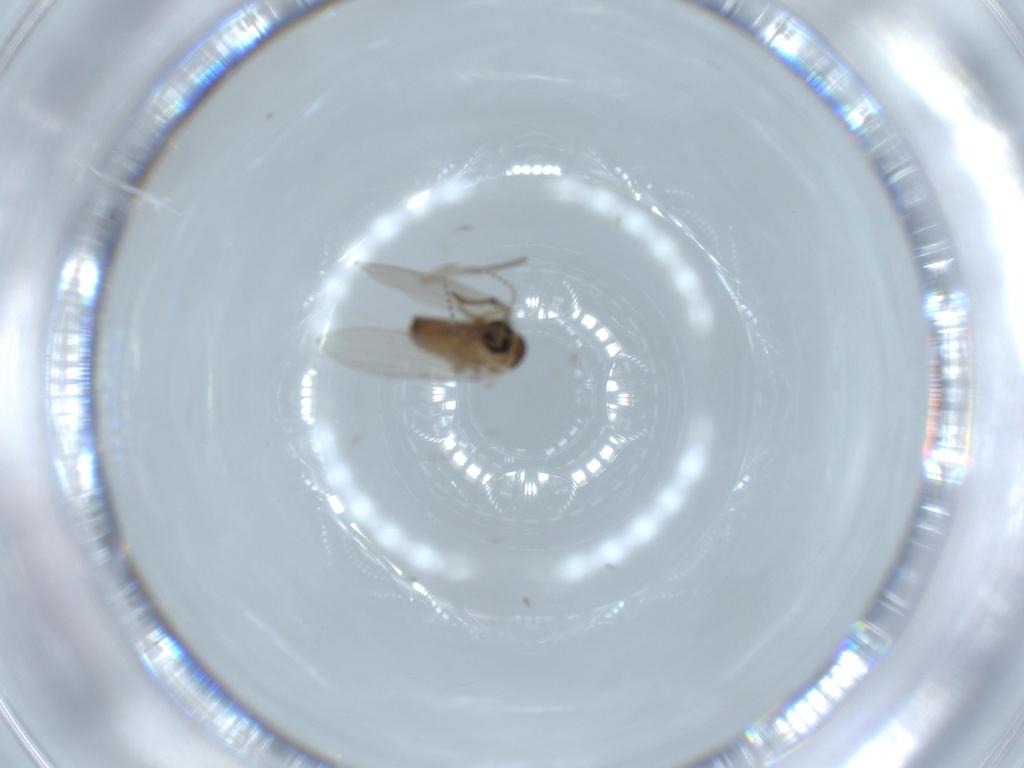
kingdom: Animalia
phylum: Arthropoda
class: Insecta
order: Diptera
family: Psychodidae
